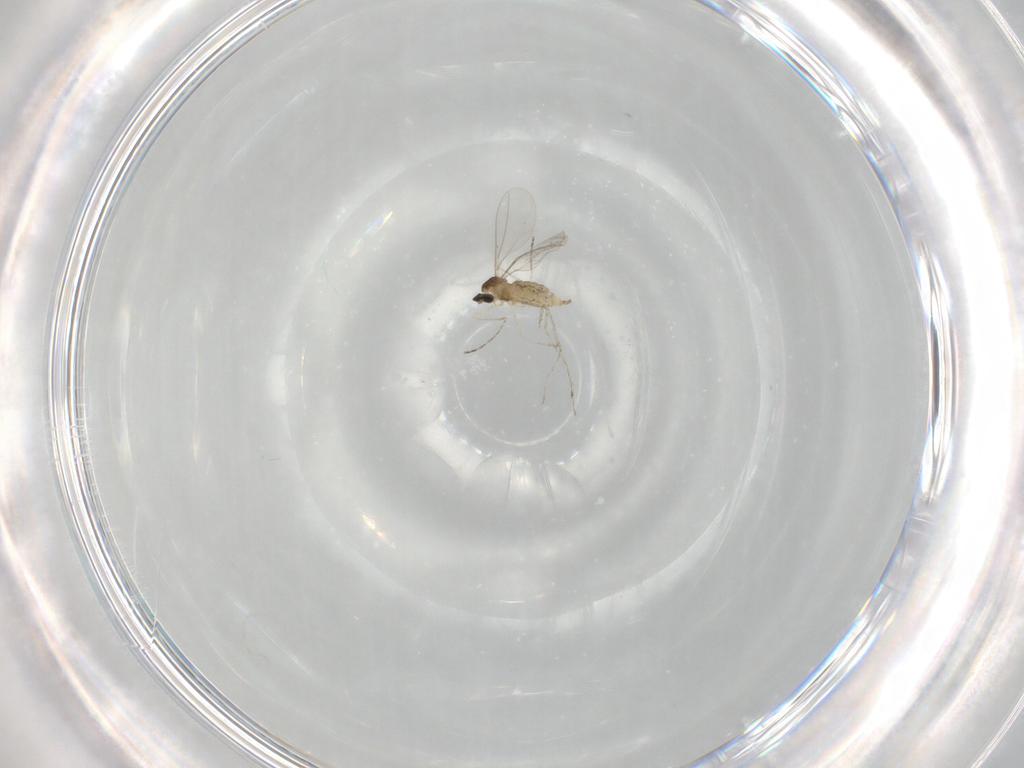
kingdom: Animalia
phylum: Arthropoda
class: Insecta
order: Diptera
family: Cecidomyiidae
